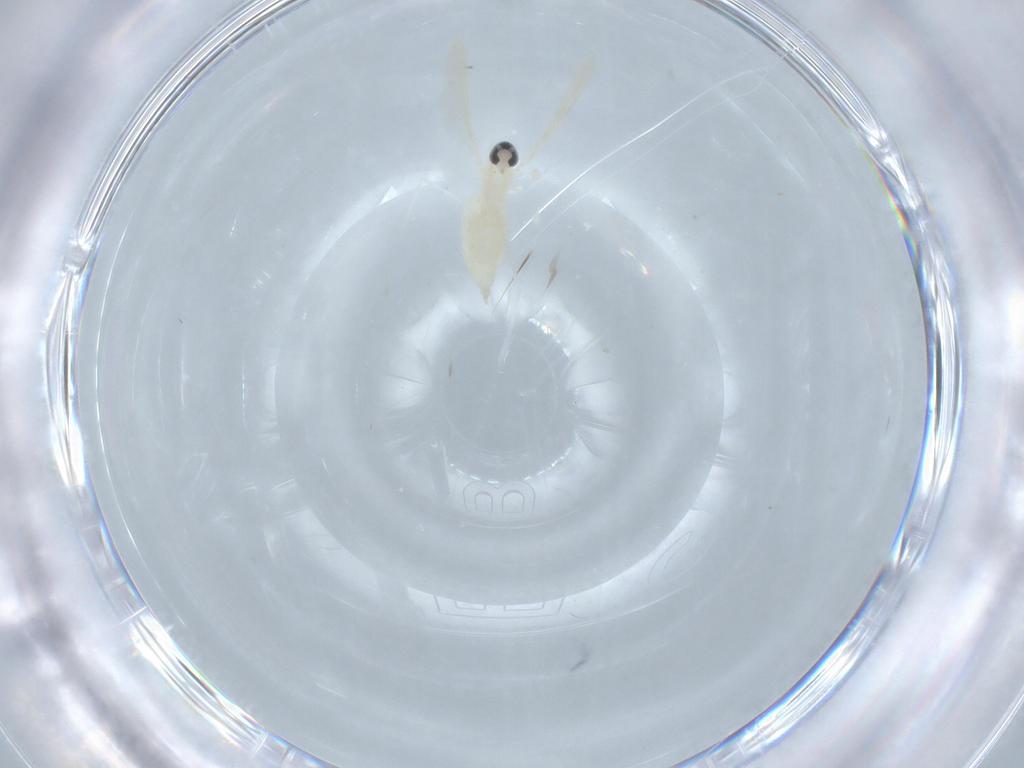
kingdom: Animalia
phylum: Arthropoda
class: Insecta
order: Diptera
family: Cecidomyiidae
